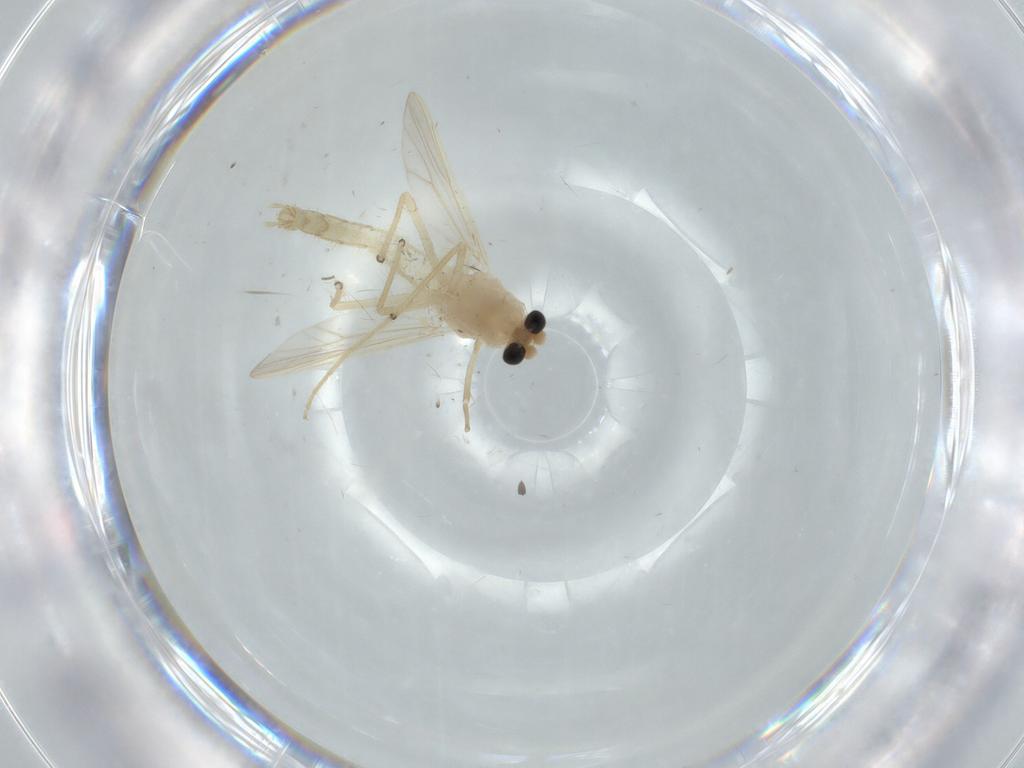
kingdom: Animalia
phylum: Arthropoda
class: Insecta
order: Diptera
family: Chironomidae
